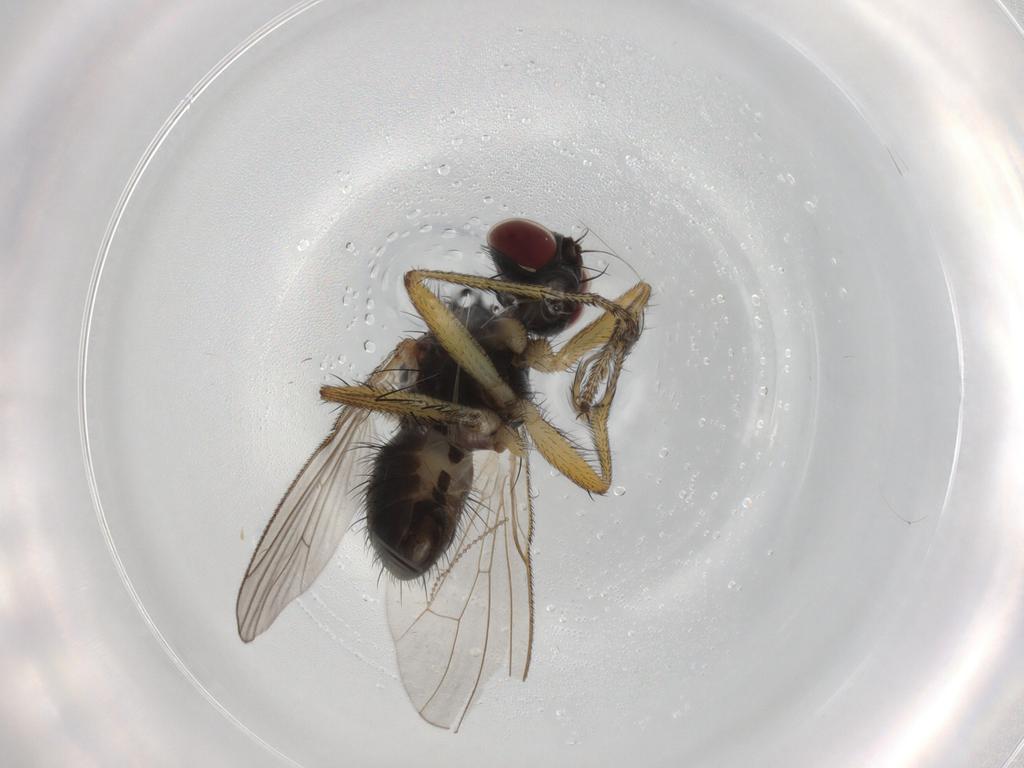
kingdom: Animalia
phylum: Arthropoda
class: Insecta
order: Diptera
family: Muscidae
